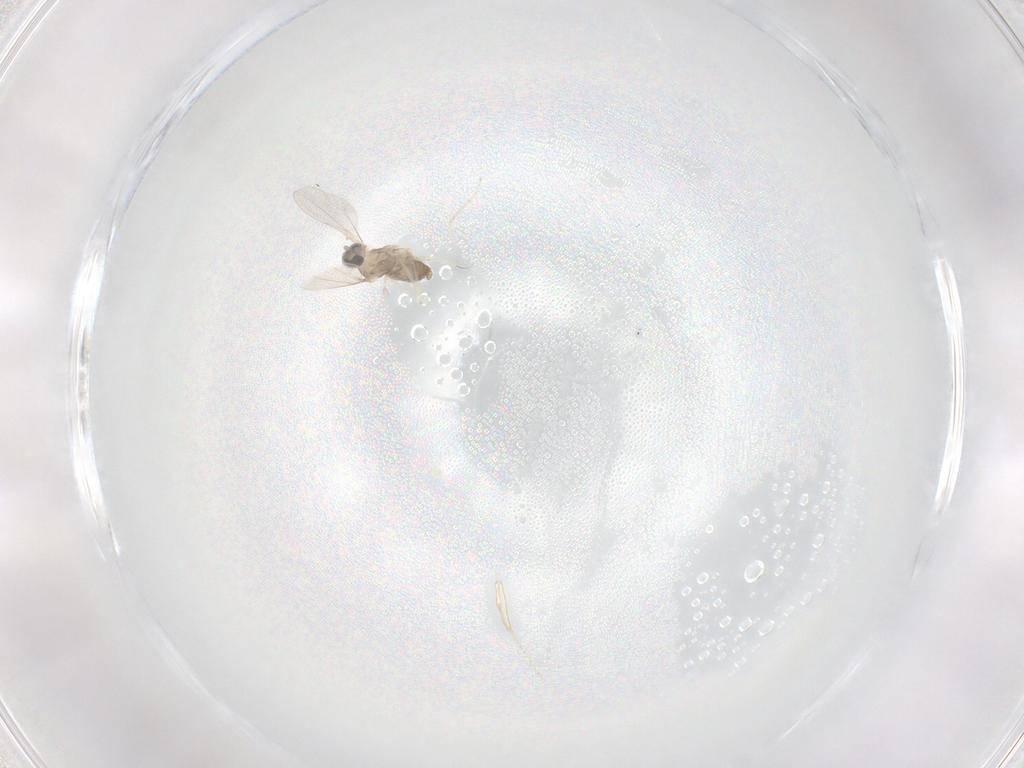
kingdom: Animalia
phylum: Arthropoda
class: Insecta
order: Diptera
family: Cecidomyiidae
